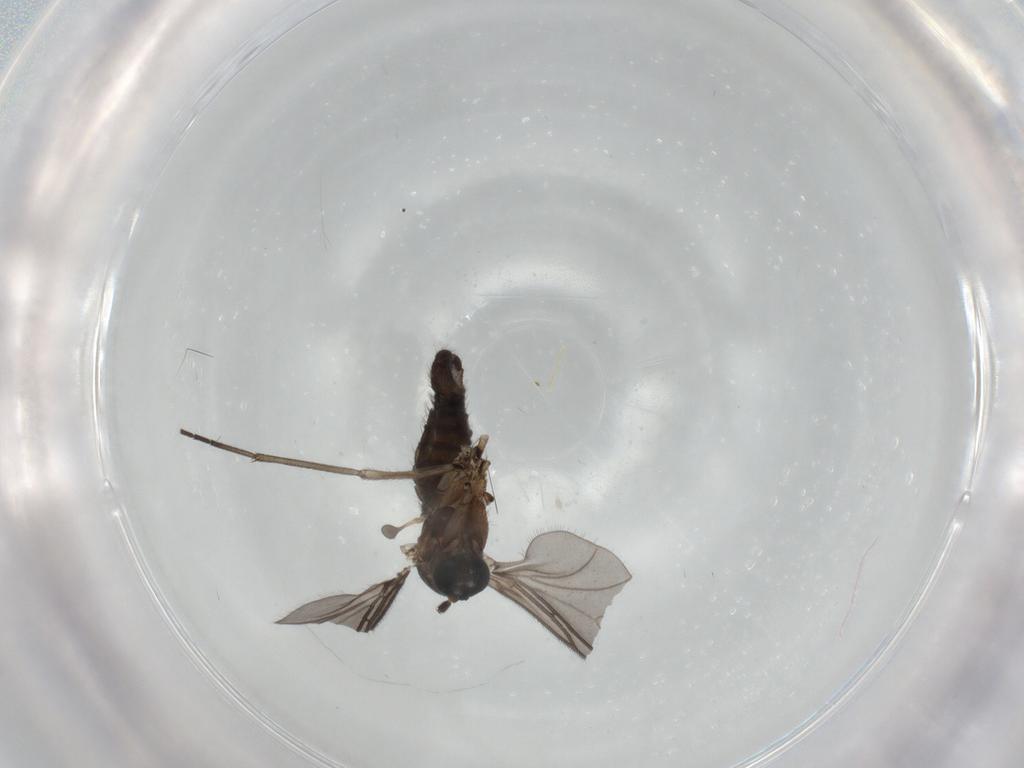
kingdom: Animalia
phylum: Arthropoda
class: Insecta
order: Diptera
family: Sciaridae
